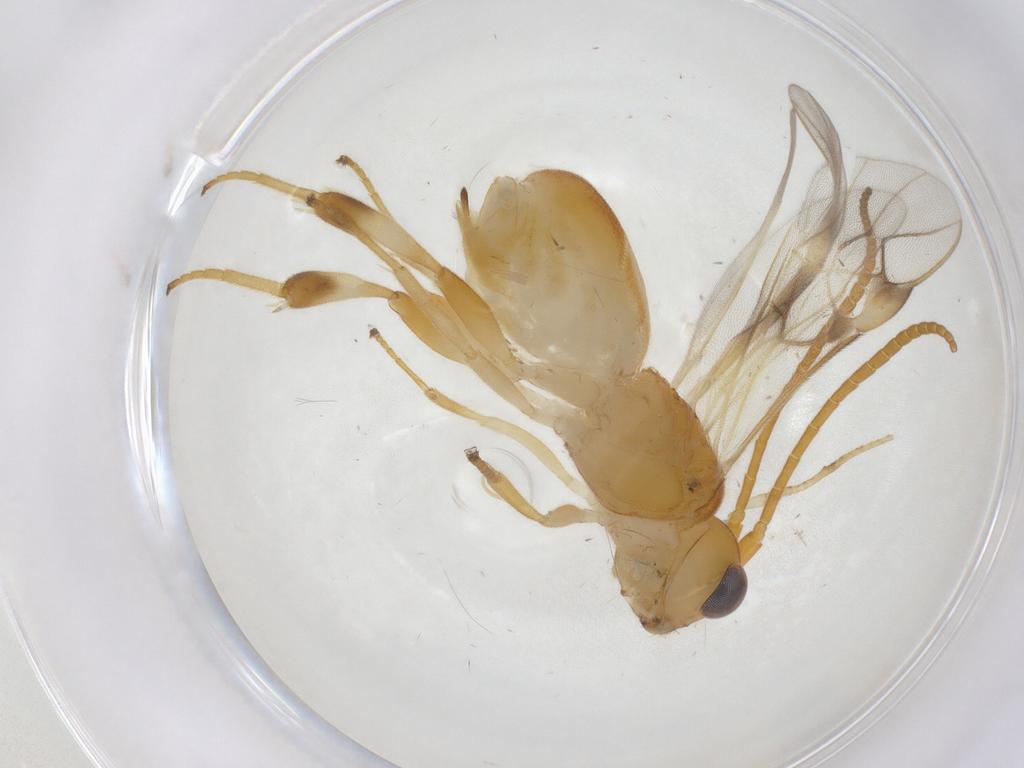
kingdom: Animalia
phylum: Arthropoda
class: Insecta
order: Hymenoptera
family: Braconidae
